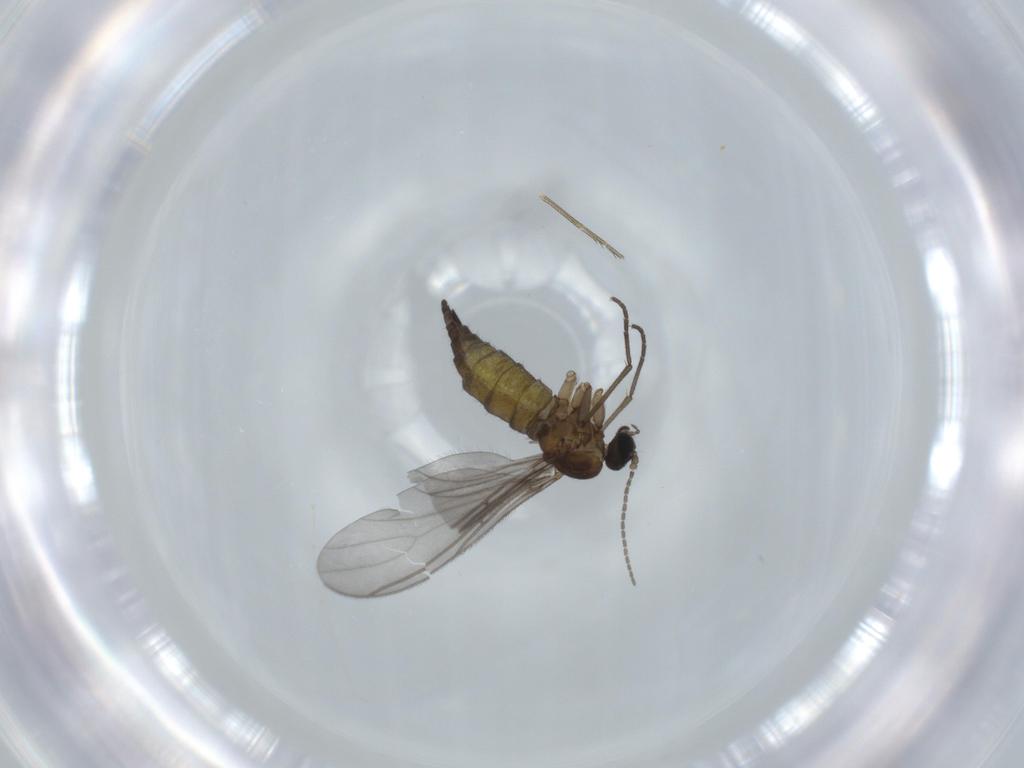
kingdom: Animalia
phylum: Arthropoda
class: Insecta
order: Diptera
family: Sciaridae
